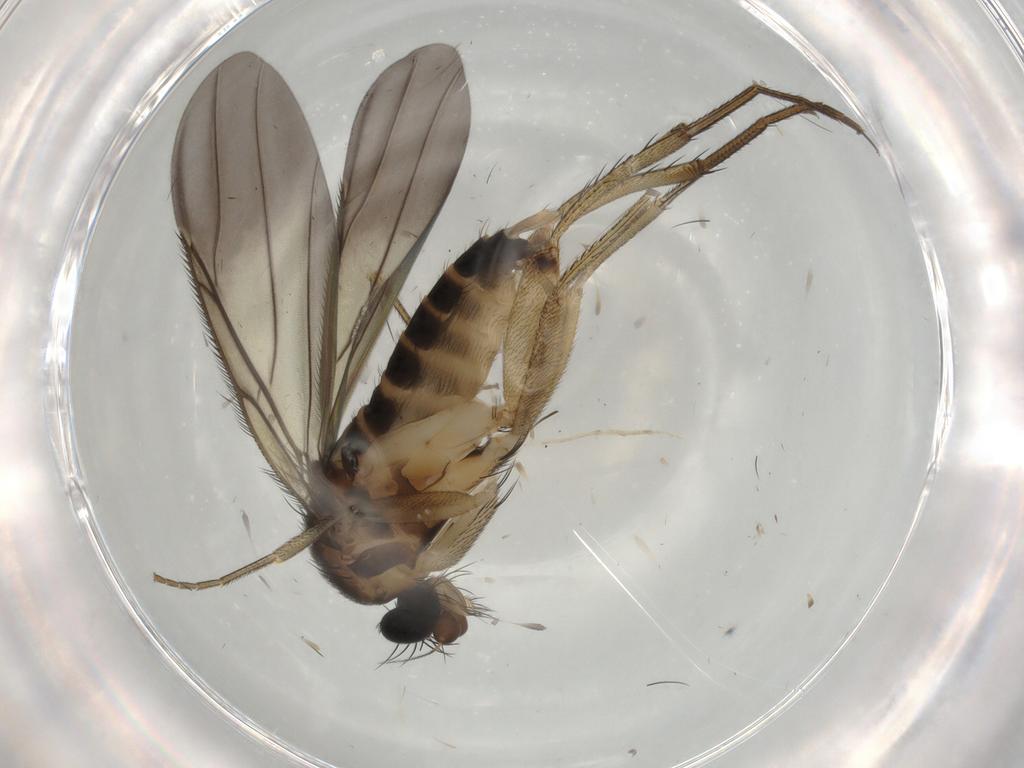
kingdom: Animalia
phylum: Arthropoda
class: Insecta
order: Diptera
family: Phoridae
